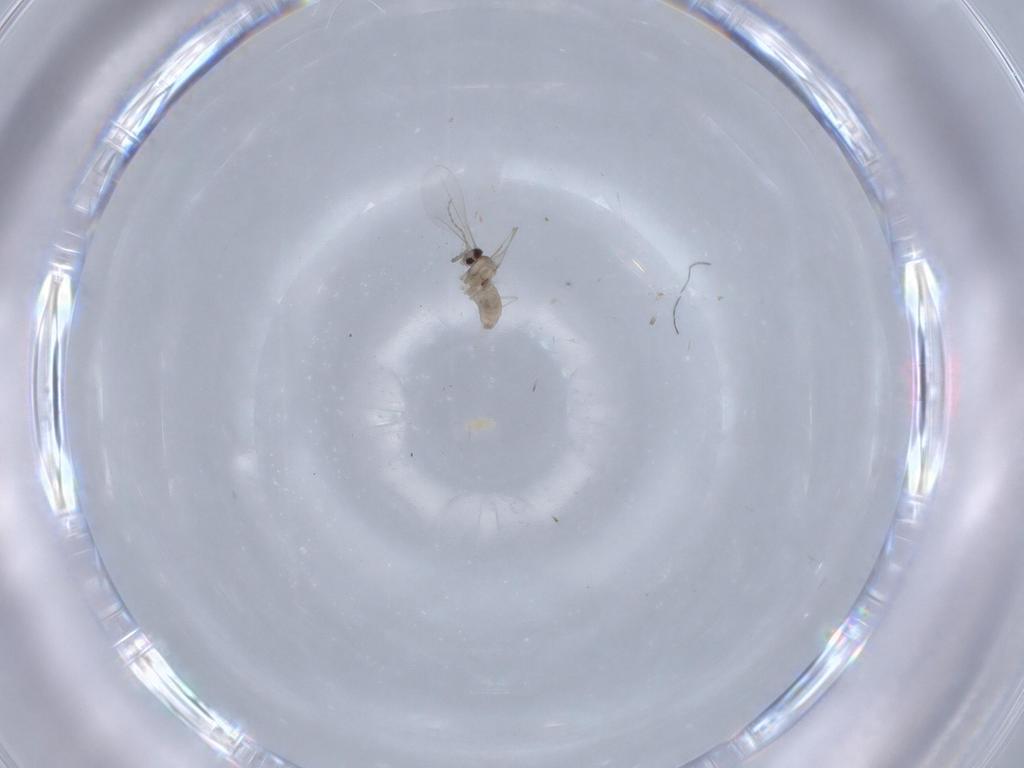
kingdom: Animalia
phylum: Arthropoda
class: Insecta
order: Diptera
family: Cecidomyiidae
